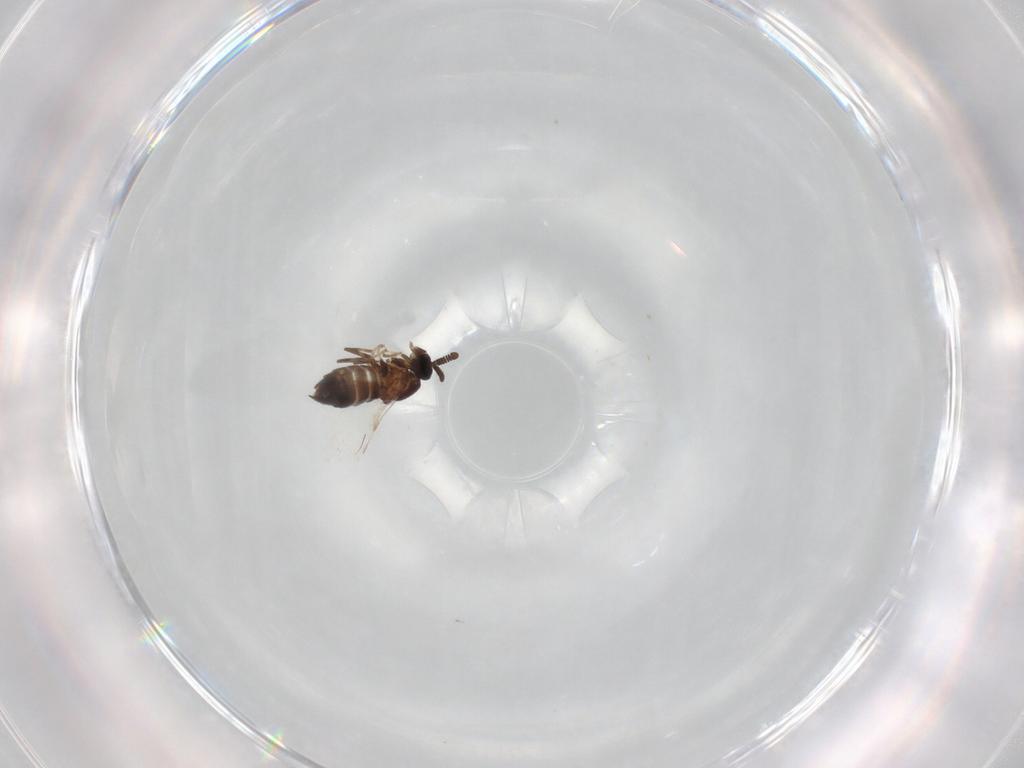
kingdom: Animalia
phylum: Arthropoda
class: Insecta
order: Diptera
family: Scatopsidae
